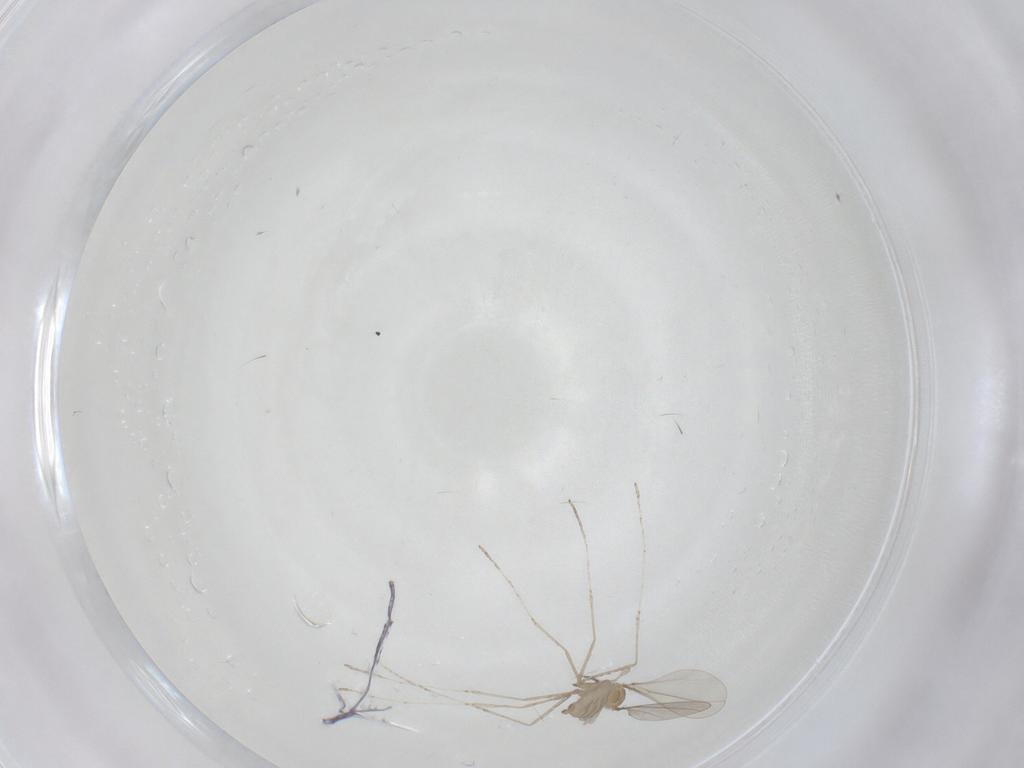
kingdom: Animalia
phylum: Arthropoda
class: Insecta
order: Diptera
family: Cecidomyiidae
